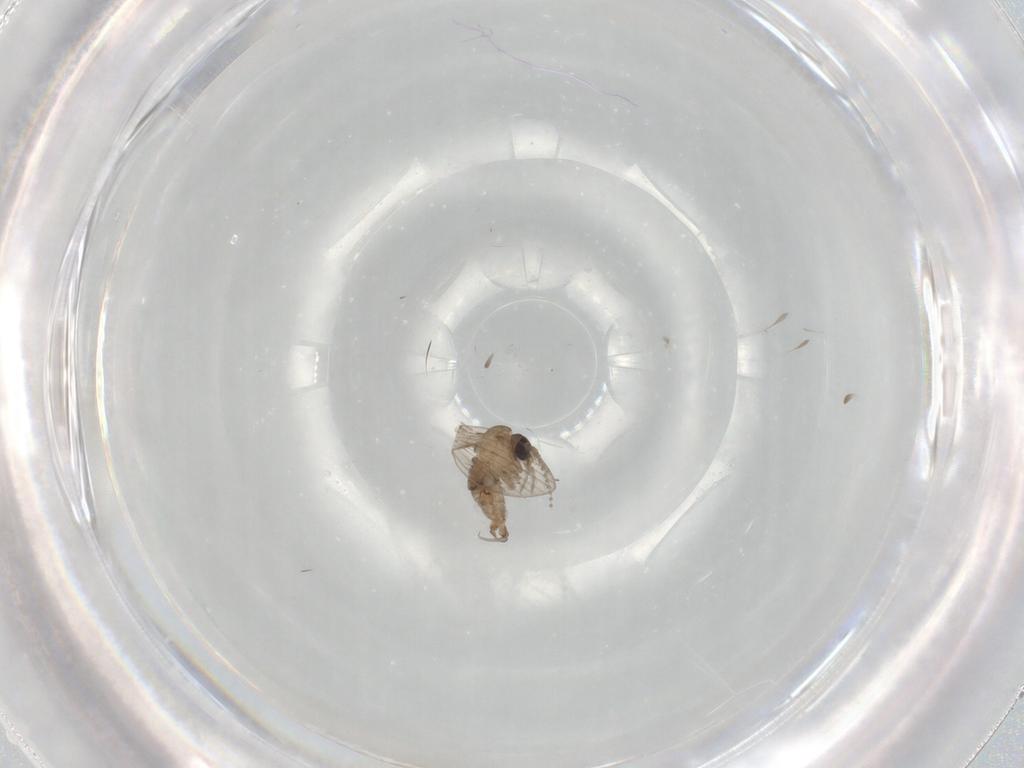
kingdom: Animalia
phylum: Arthropoda
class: Insecta
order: Diptera
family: Psychodidae
